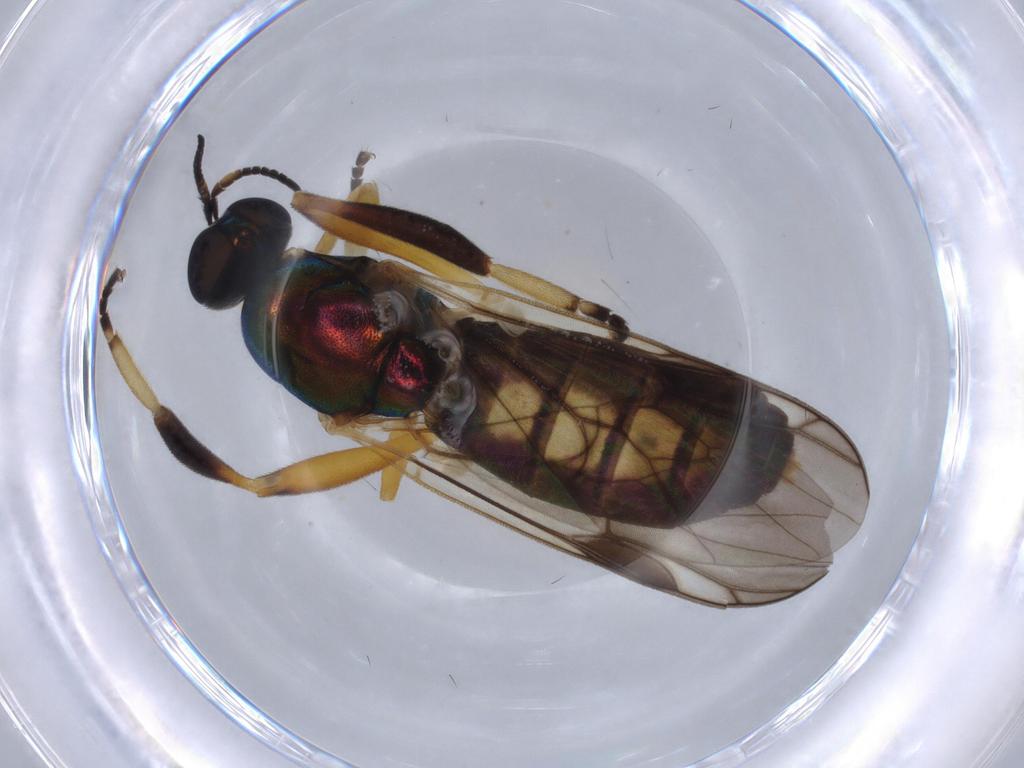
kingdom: Animalia
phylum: Arthropoda
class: Insecta
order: Diptera
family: Stratiomyidae
